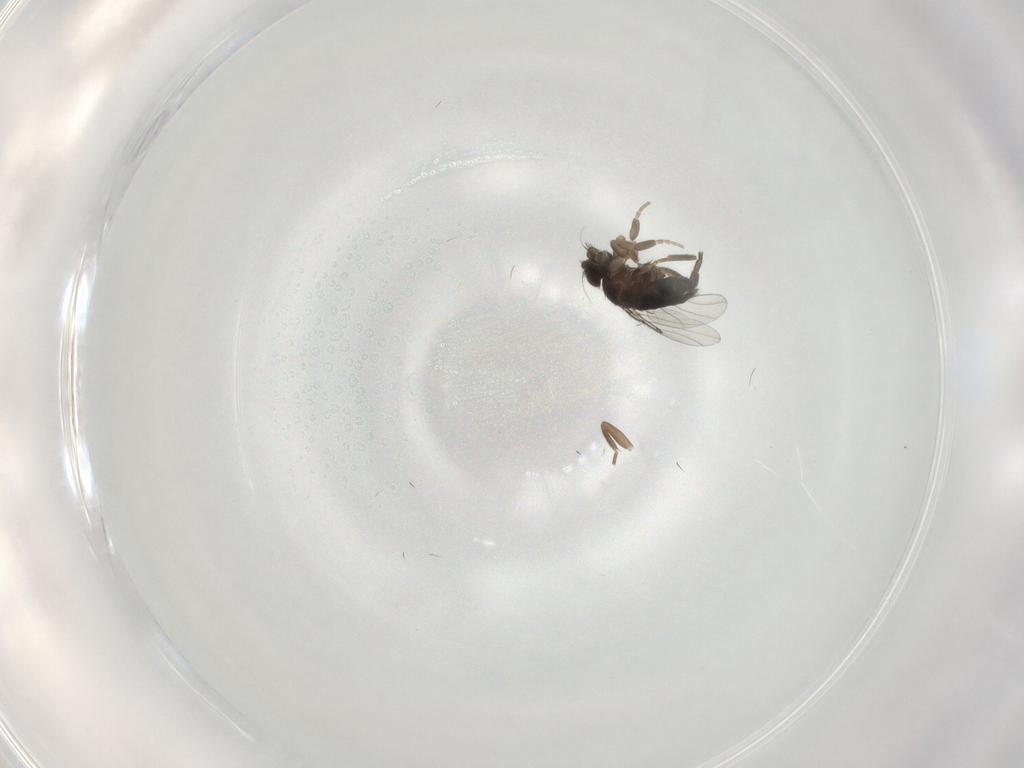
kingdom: Animalia
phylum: Arthropoda
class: Insecta
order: Diptera
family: Phoridae
